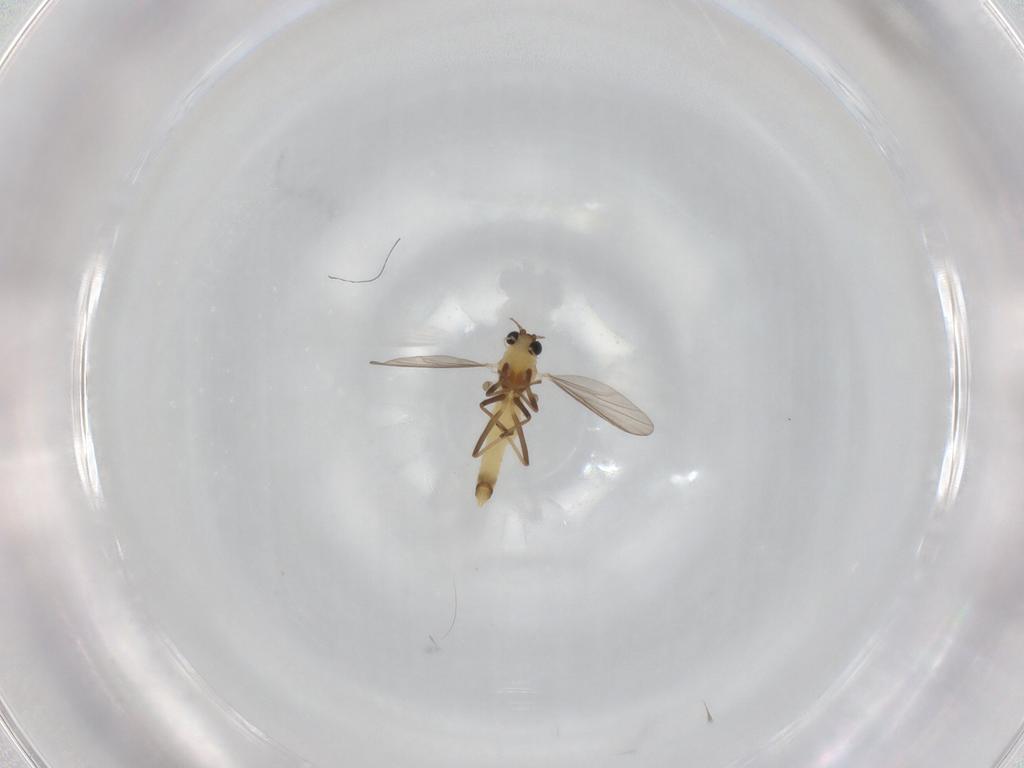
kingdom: Animalia
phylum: Arthropoda
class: Insecta
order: Diptera
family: Chironomidae
